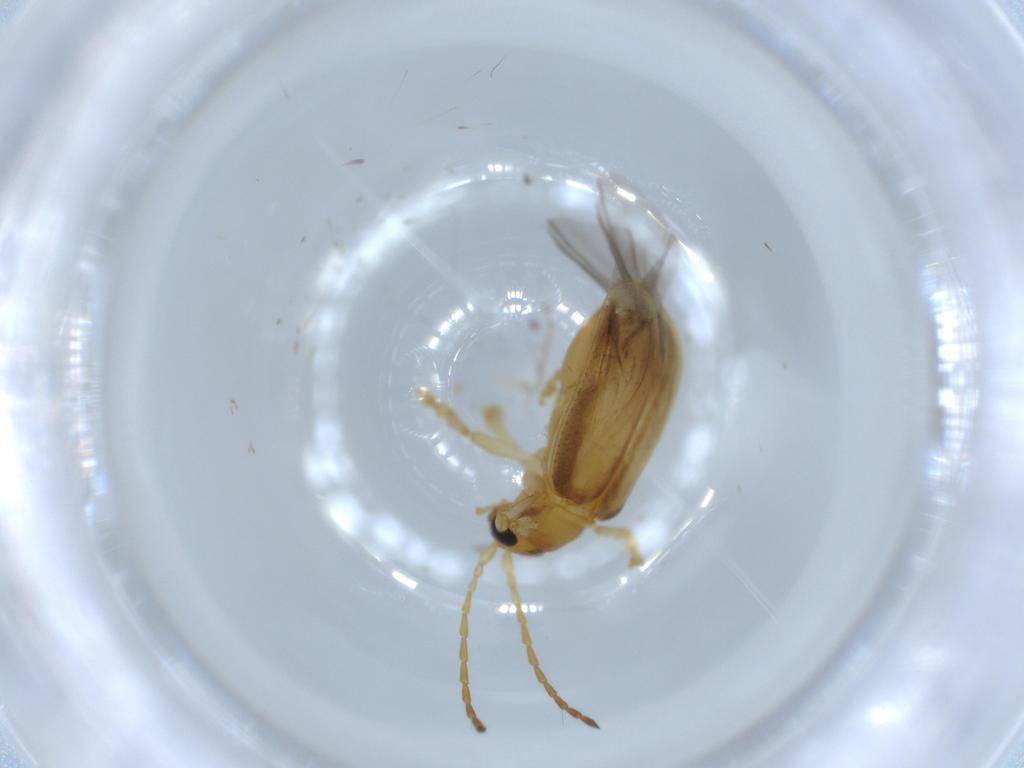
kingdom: Animalia
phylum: Arthropoda
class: Insecta
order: Coleoptera
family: Chrysomelidae
